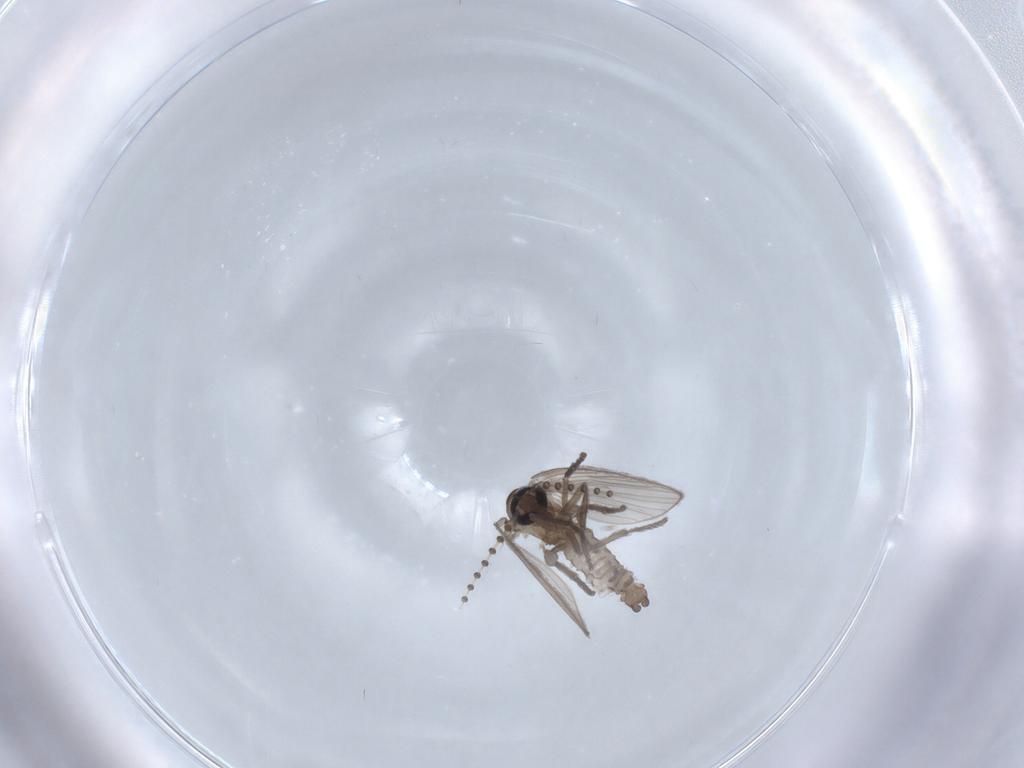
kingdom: Animalia
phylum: Arthropoda
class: Insecta
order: Diptera
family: Psychodidae
